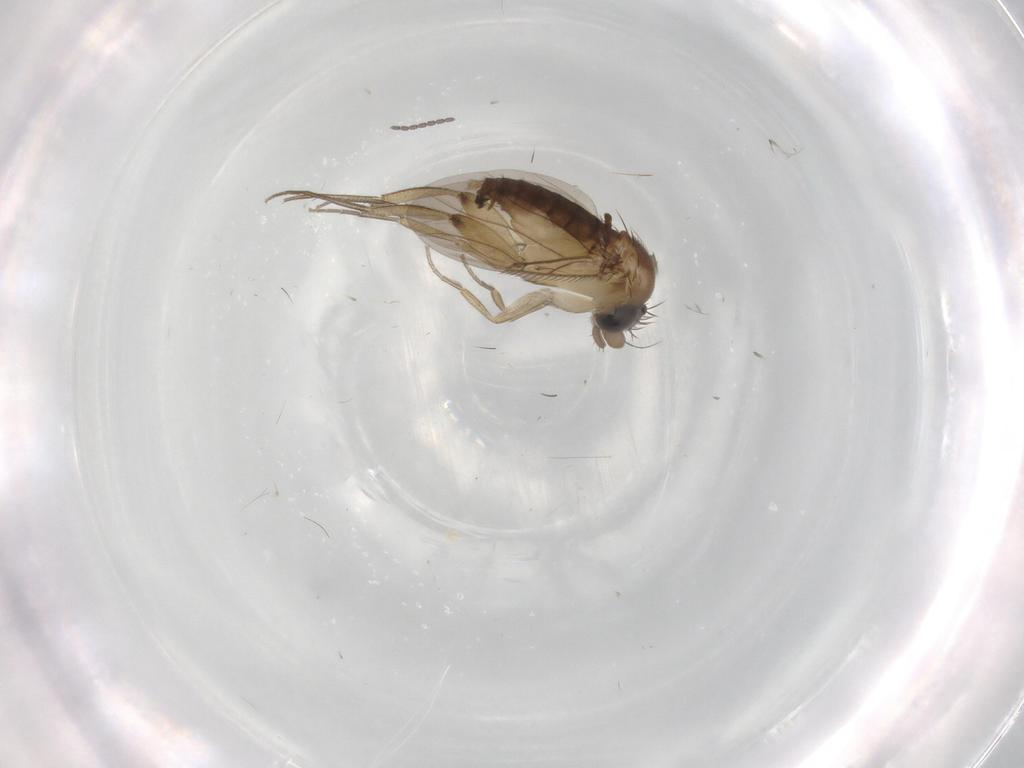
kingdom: Animalia
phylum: Arthropoda
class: Insecta
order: Diptera
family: Phoridae
